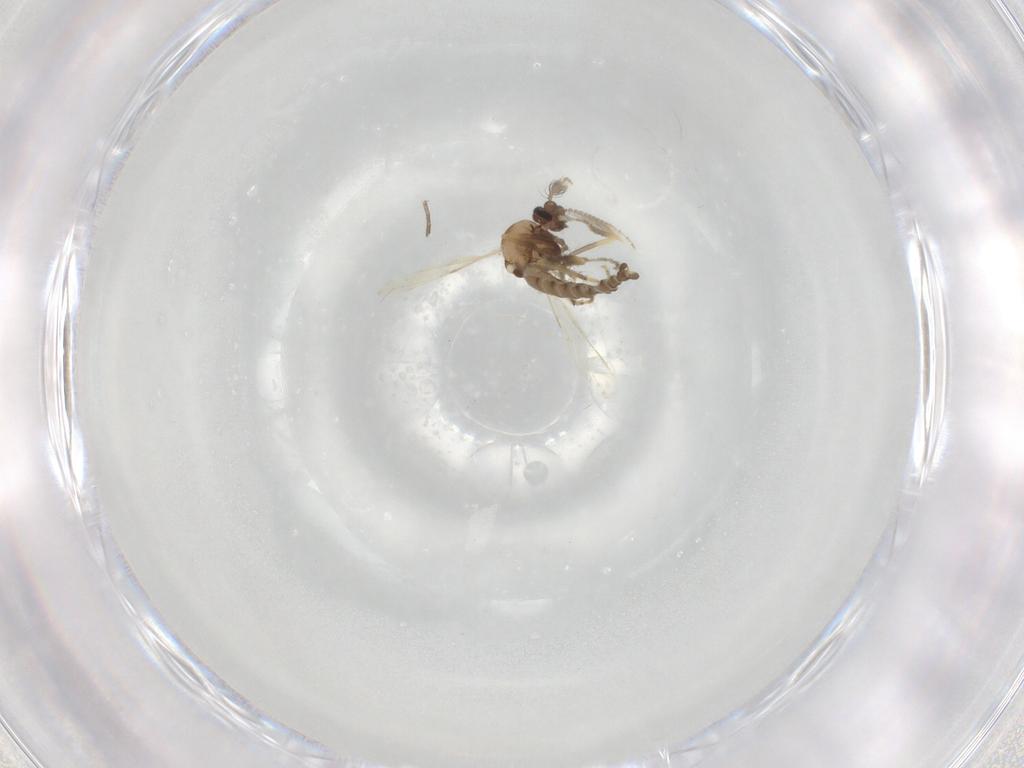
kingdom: Animalia
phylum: Arthropoda
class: Insecta
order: Diptera
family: Ceratopogonidae
